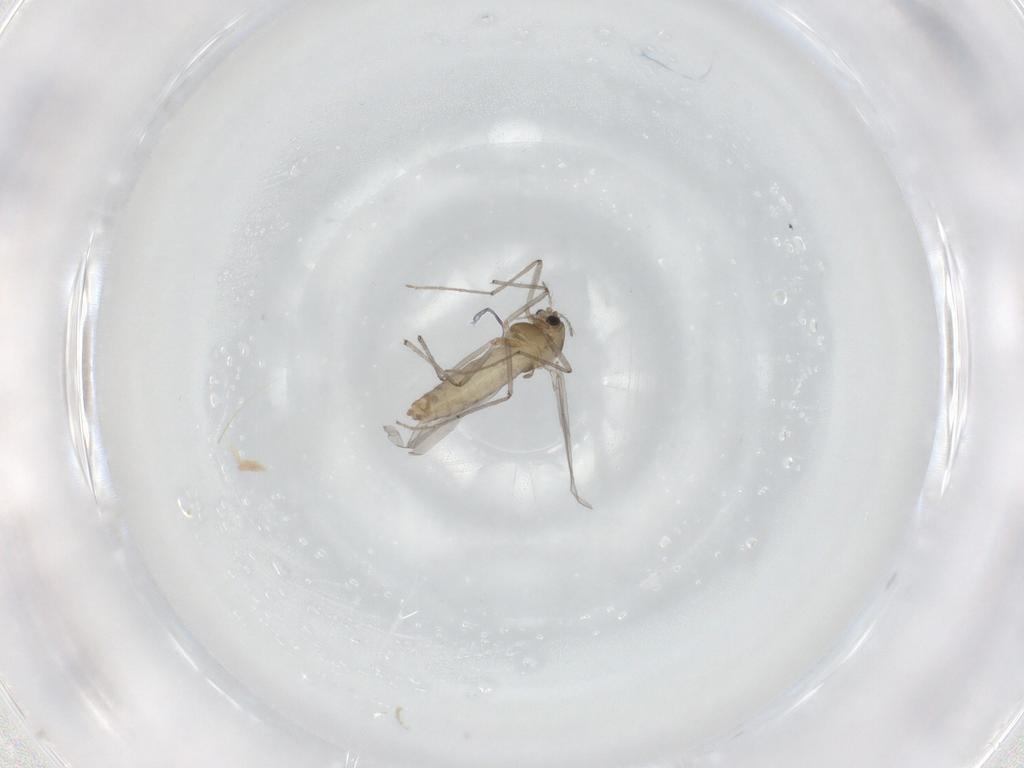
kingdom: Animalia
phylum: Arthropoda
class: Insecta
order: Diptera
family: Chironomidae
